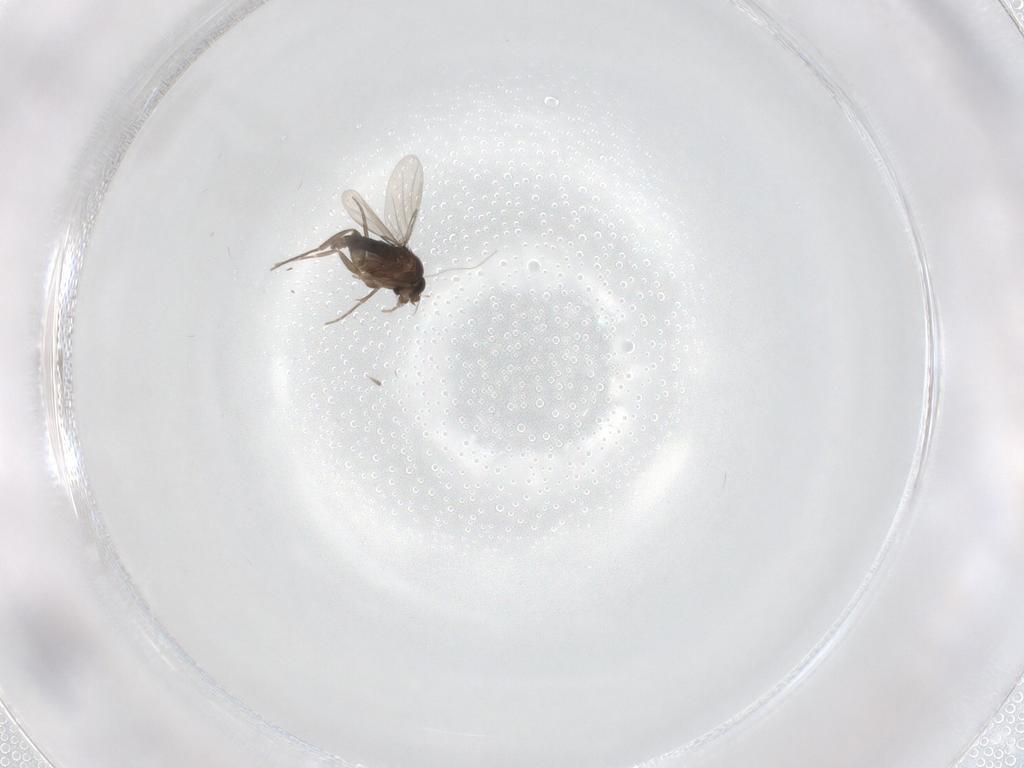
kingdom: Animalia
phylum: Arthropoda
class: Insecta
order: Diptera
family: Phoridae
